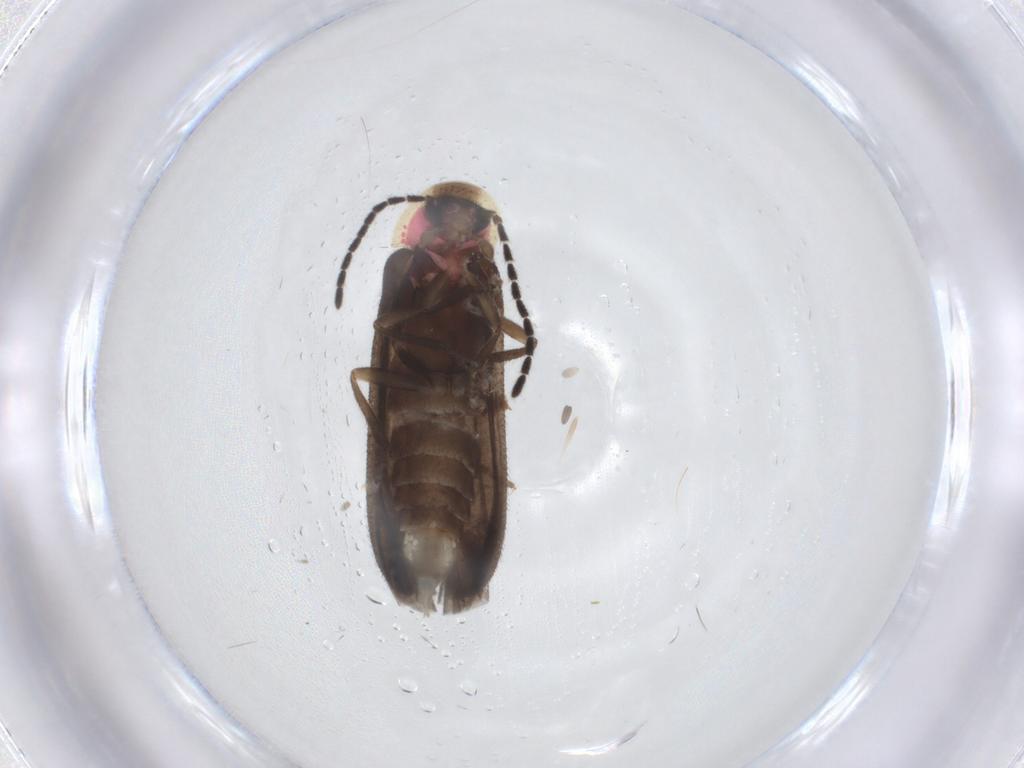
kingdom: Animalia
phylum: Arthropoda
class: Insecta
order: Coleoptera
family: Lampyridae
